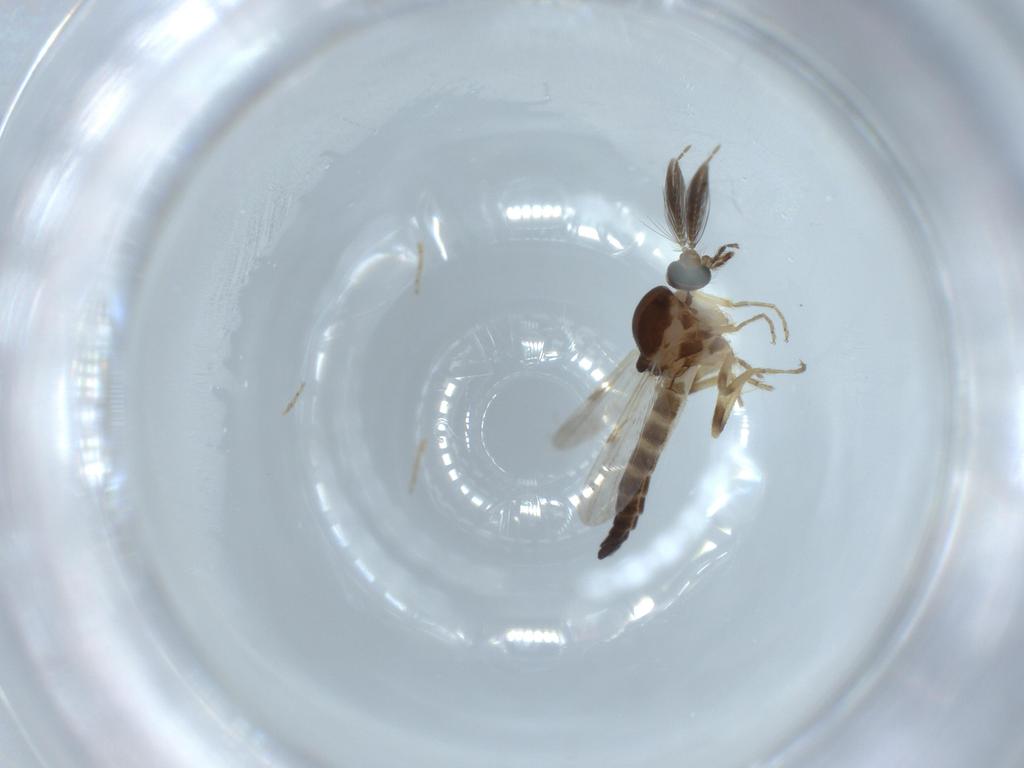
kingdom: Animalia
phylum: Arthropoda
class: Insecta
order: Diptera
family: Ceratopogonidae
